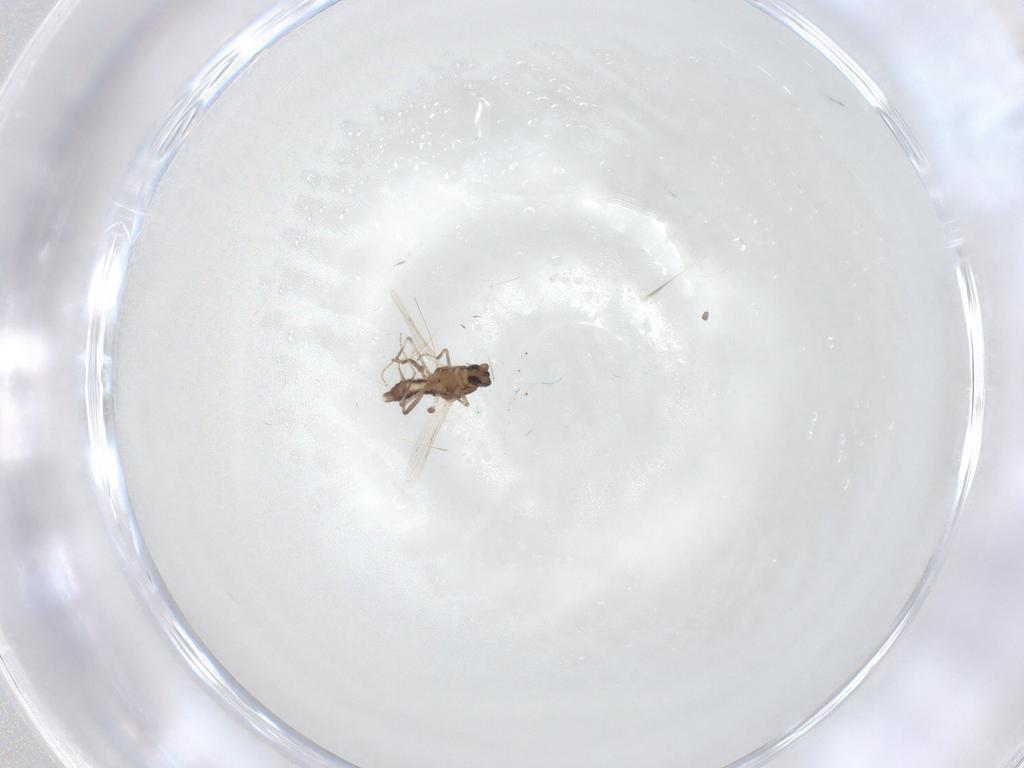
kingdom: Animalia
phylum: Arthropoda
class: Insecta
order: Diptera
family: Ceratopogonidae
